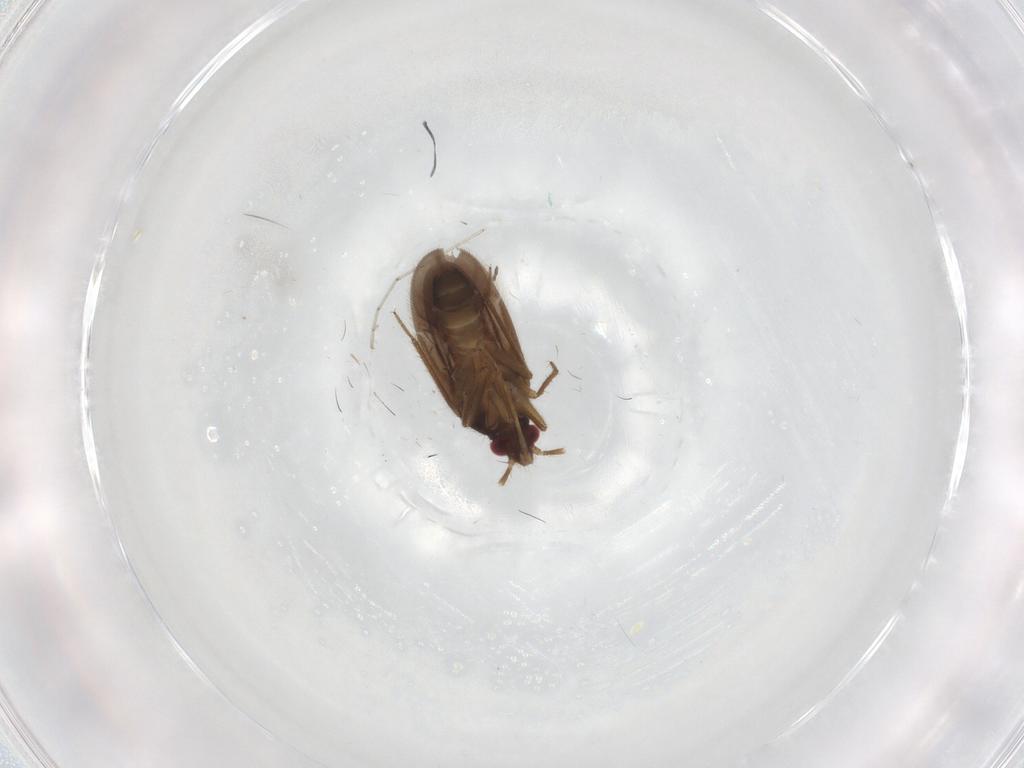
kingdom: Animalia
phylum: Arthropoda
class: Insecta
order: Hemiptera
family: Ceratocombidae
